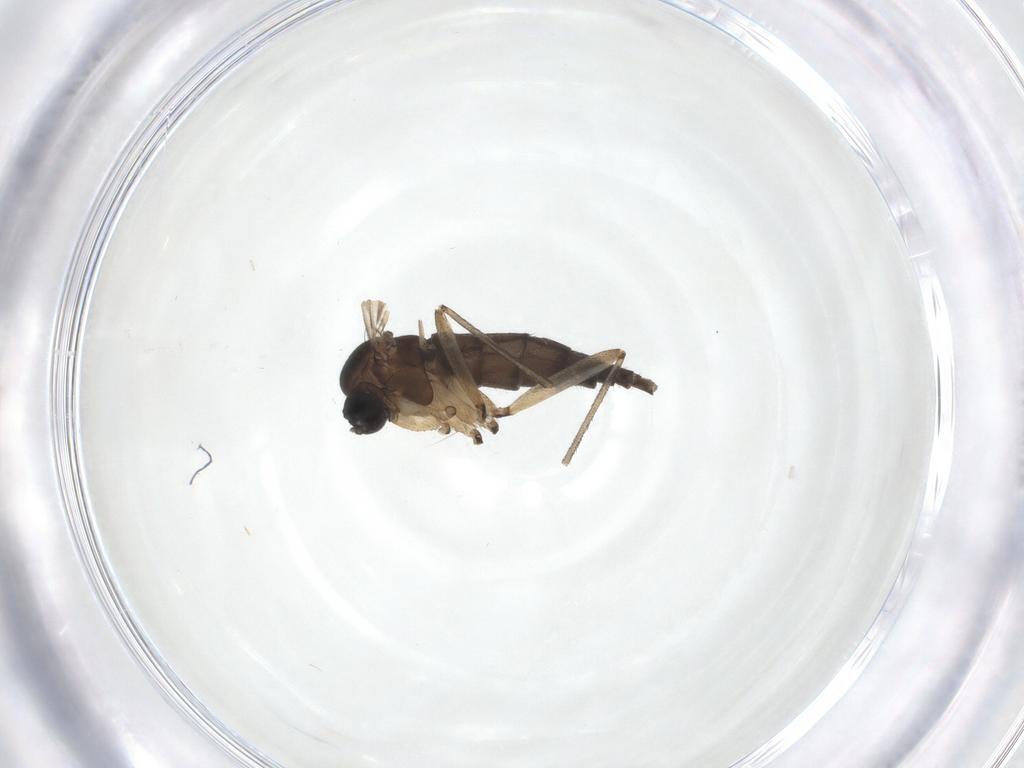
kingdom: Animalia
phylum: Arthropoda
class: Insecta
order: Diptera
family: Sciaridae
